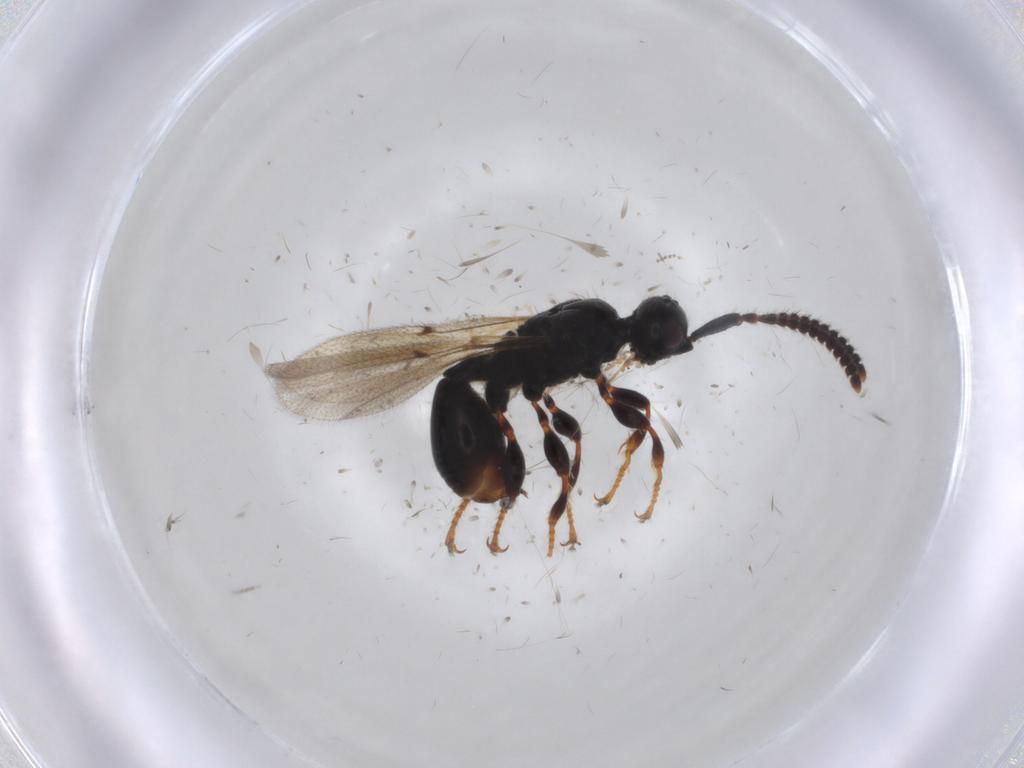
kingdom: Animalia
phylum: Arthropoda
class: Insecta
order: Hymenoptera
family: Diapriidae
